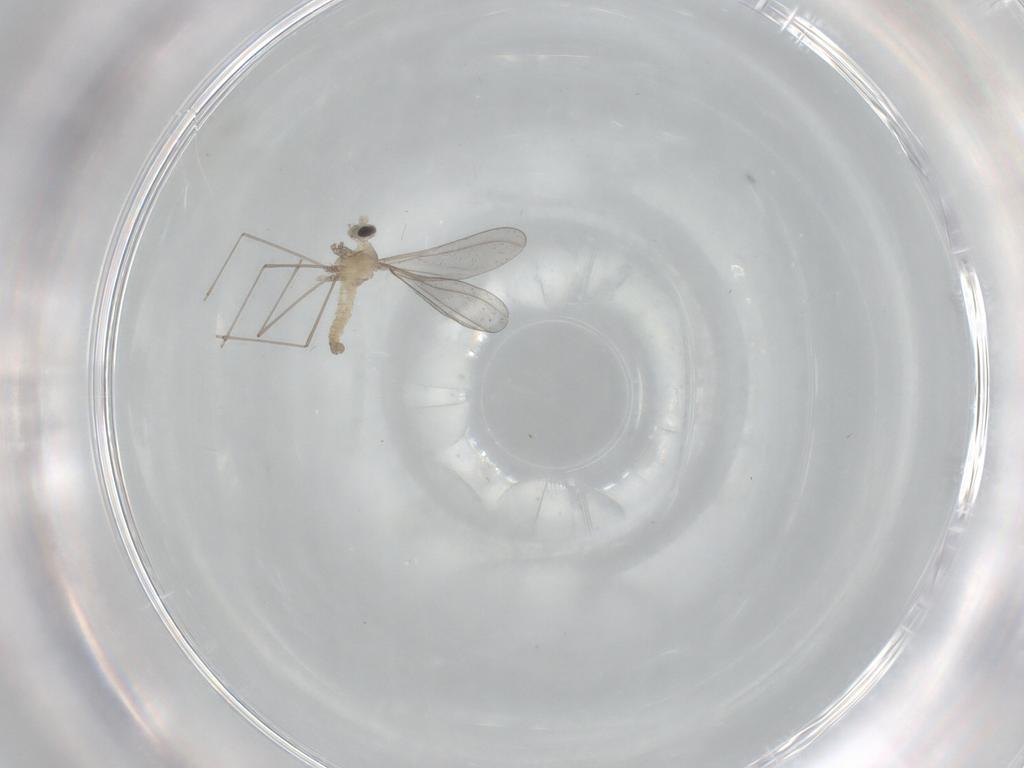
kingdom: Animalia
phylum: Arthropoda
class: Insecta
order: Diptera
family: Cecidomyiidae
